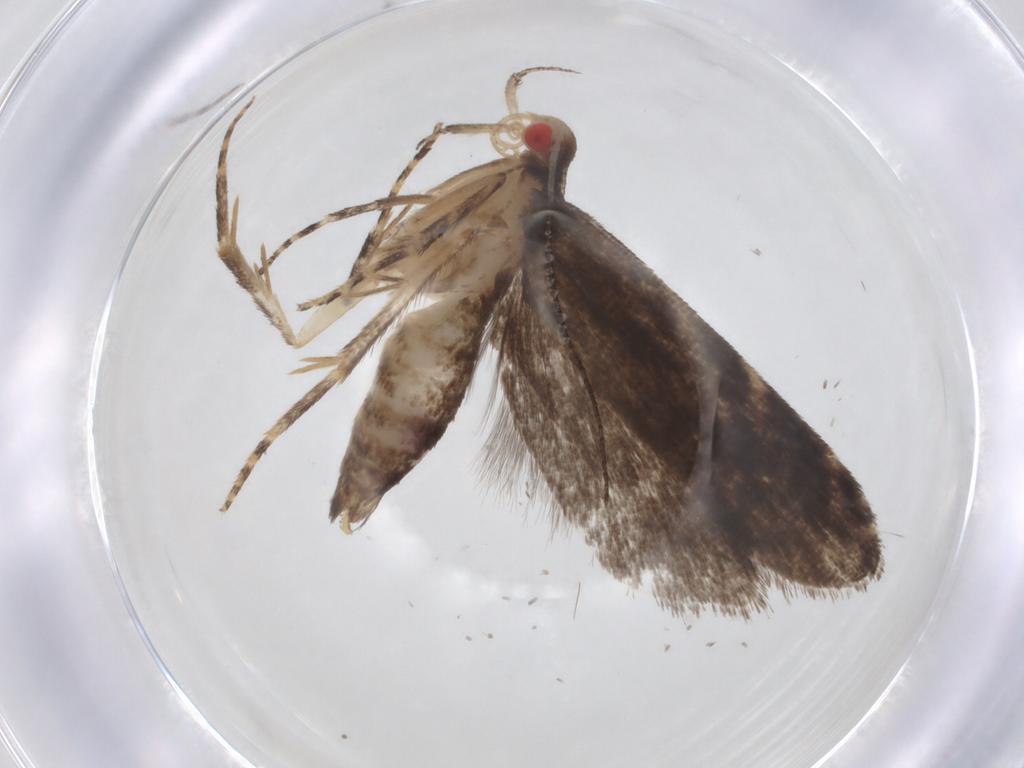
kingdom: Animalia
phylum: Arthropoda
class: Insecta
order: Lepidoptera
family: Gelechiidae
